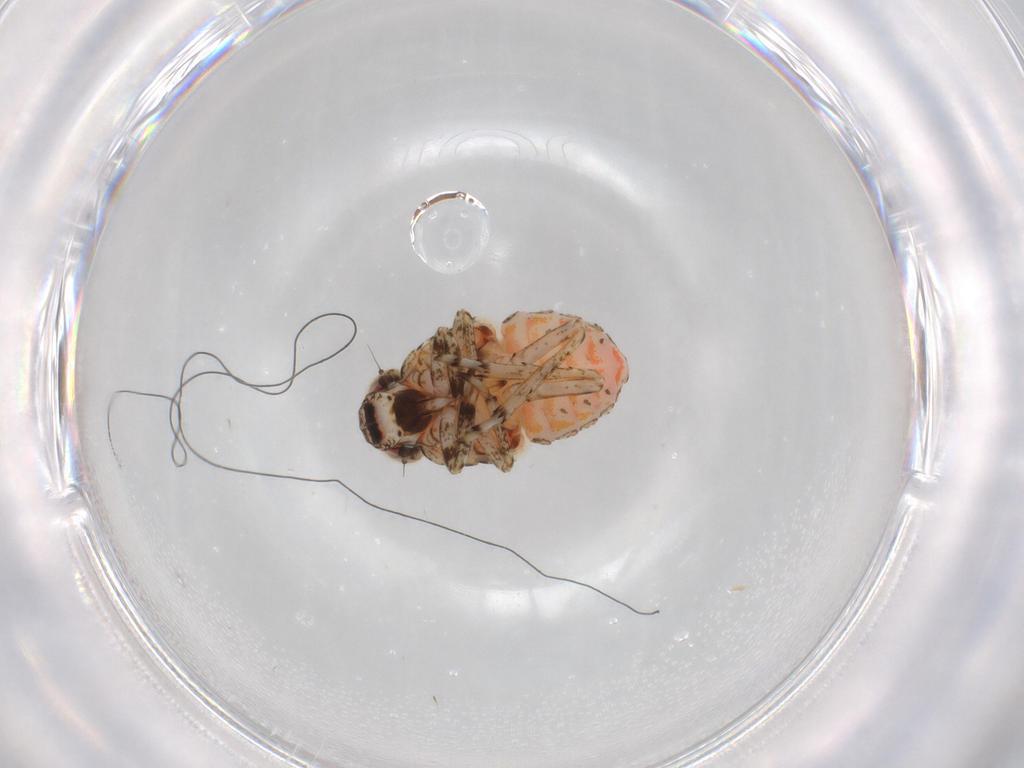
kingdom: Animalia
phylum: Arthropoda
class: Insecta
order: Hemiptera
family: Issidae
